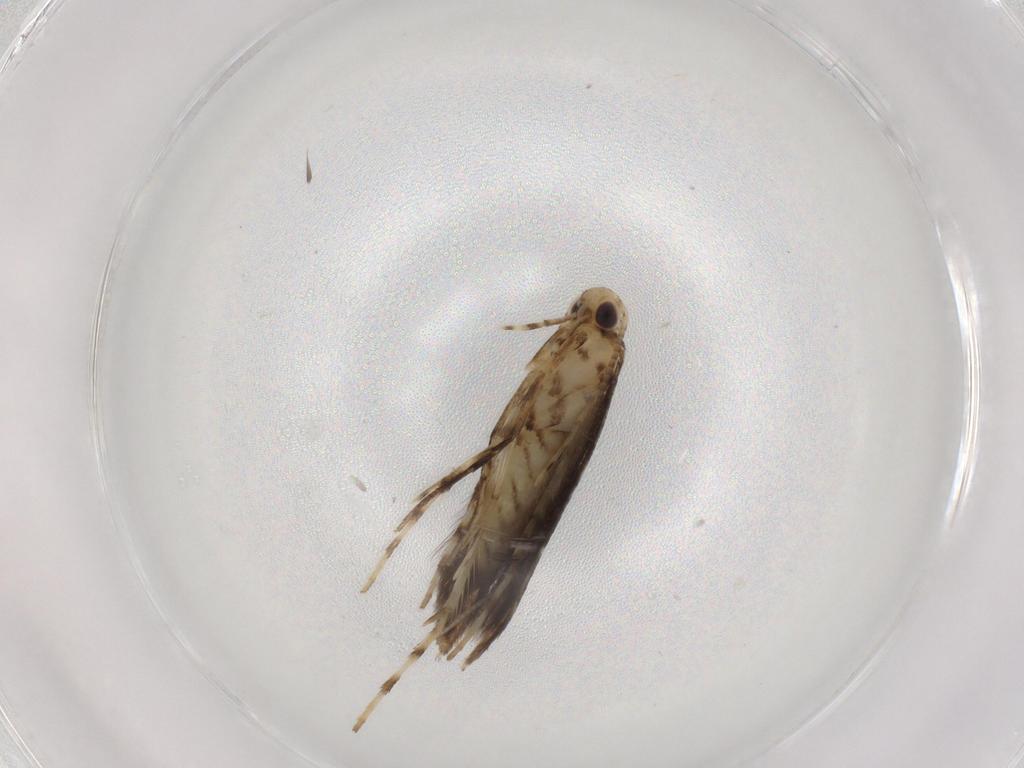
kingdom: Animalia
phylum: Arthropoda
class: Insecta
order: Lepidoptera
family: Gracillariidae
